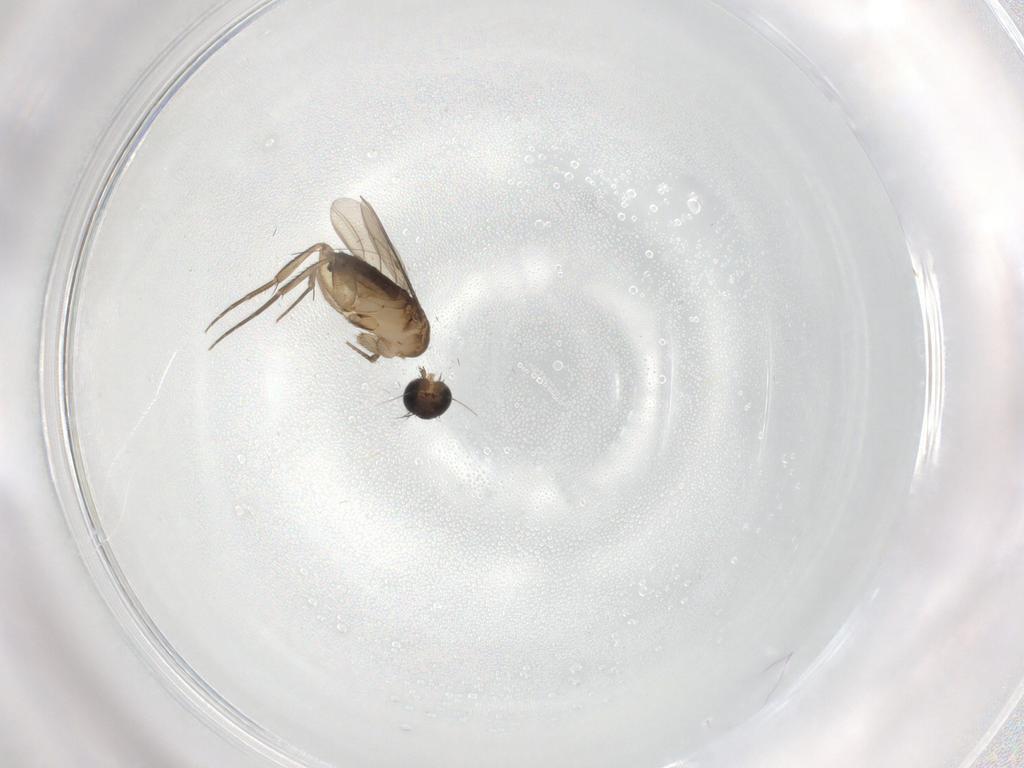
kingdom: Animalia
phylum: Arthropoda
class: Insecta
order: Diptera
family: Phoridae
